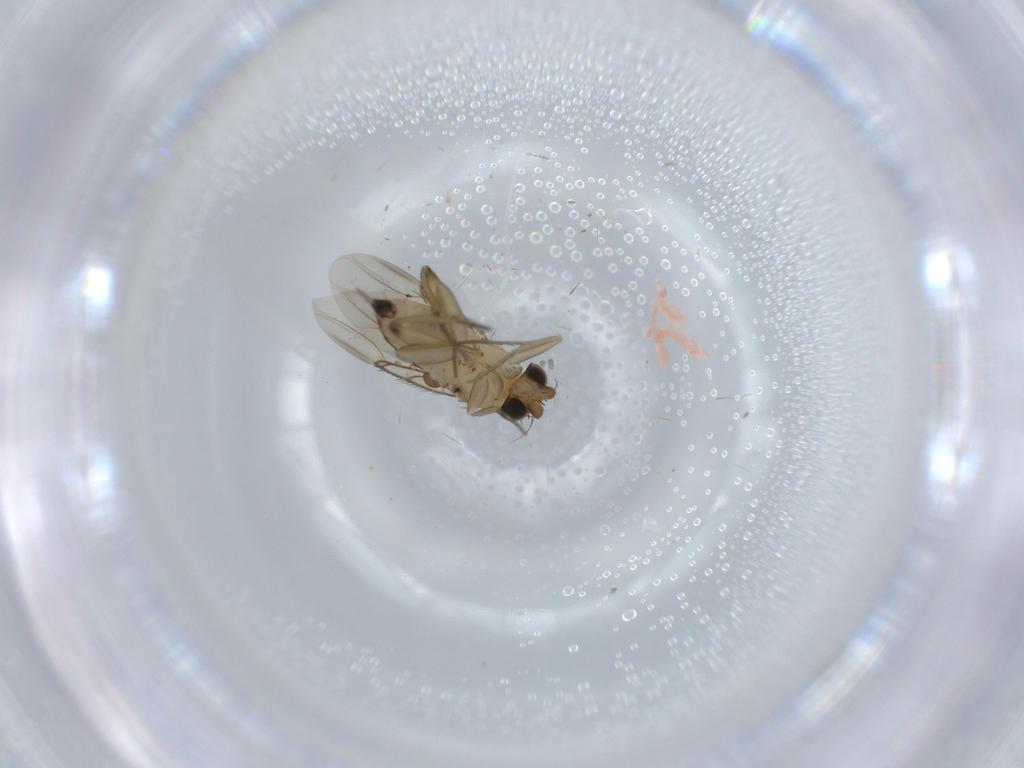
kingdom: Animalia
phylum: Arthropoda
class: Insecta
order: Diptera
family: Phoridae
